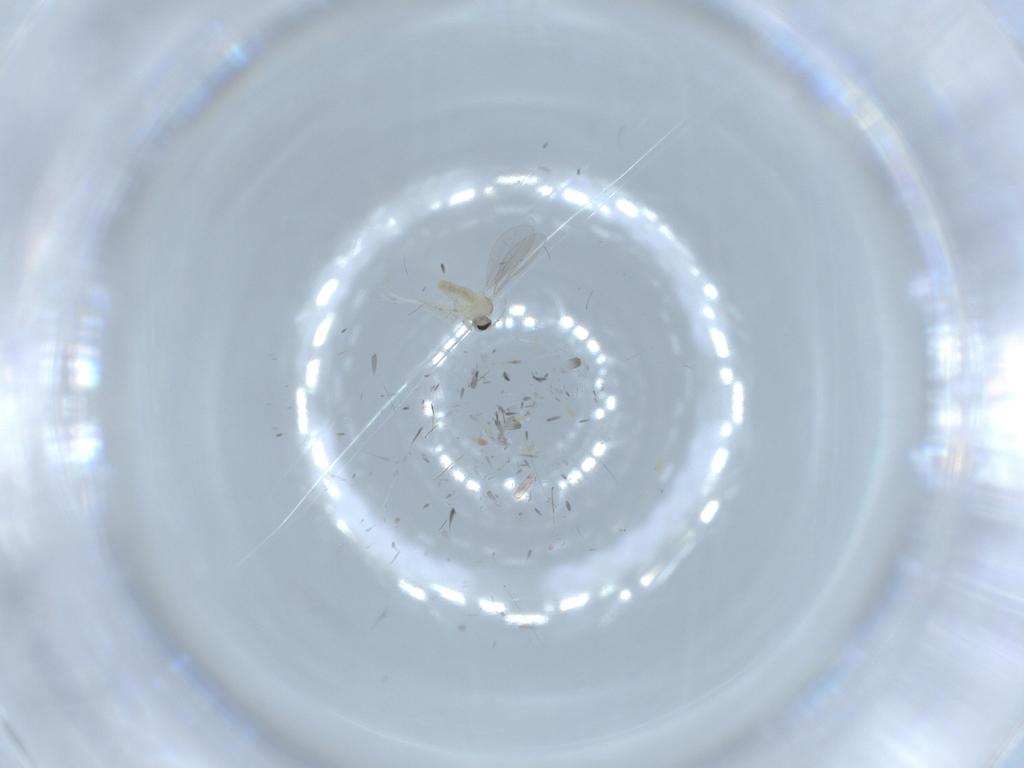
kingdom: Animalia
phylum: Arthropoda
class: Insecta
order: Diptera
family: Cecidomyiidae
